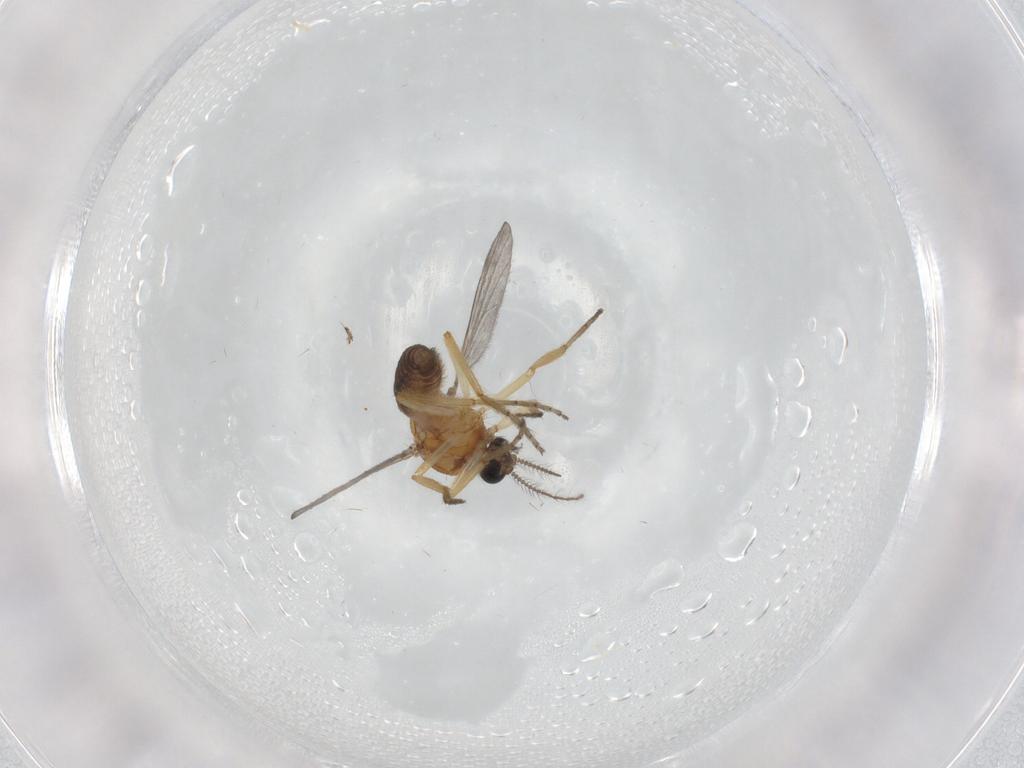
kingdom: Animalia
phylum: Arthropoda
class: Insecta
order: Diptera
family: Ceratopogonidae
